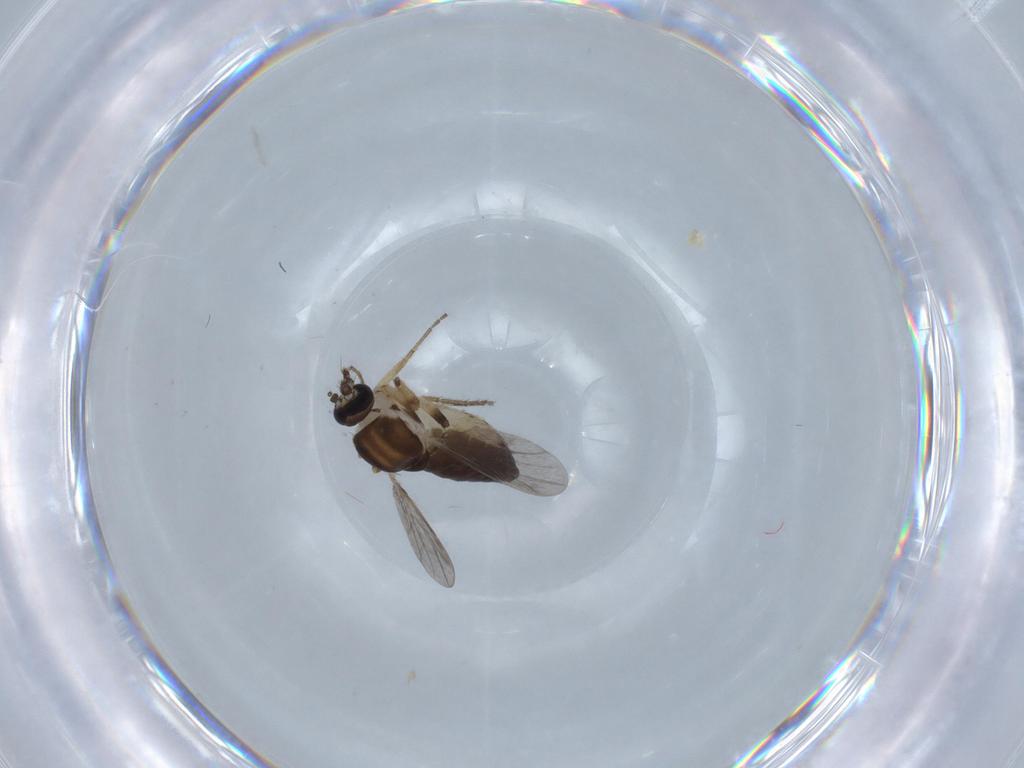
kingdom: Animalia
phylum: Arthropoda
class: Insecta
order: Diptera
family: Ceratopogonidae
